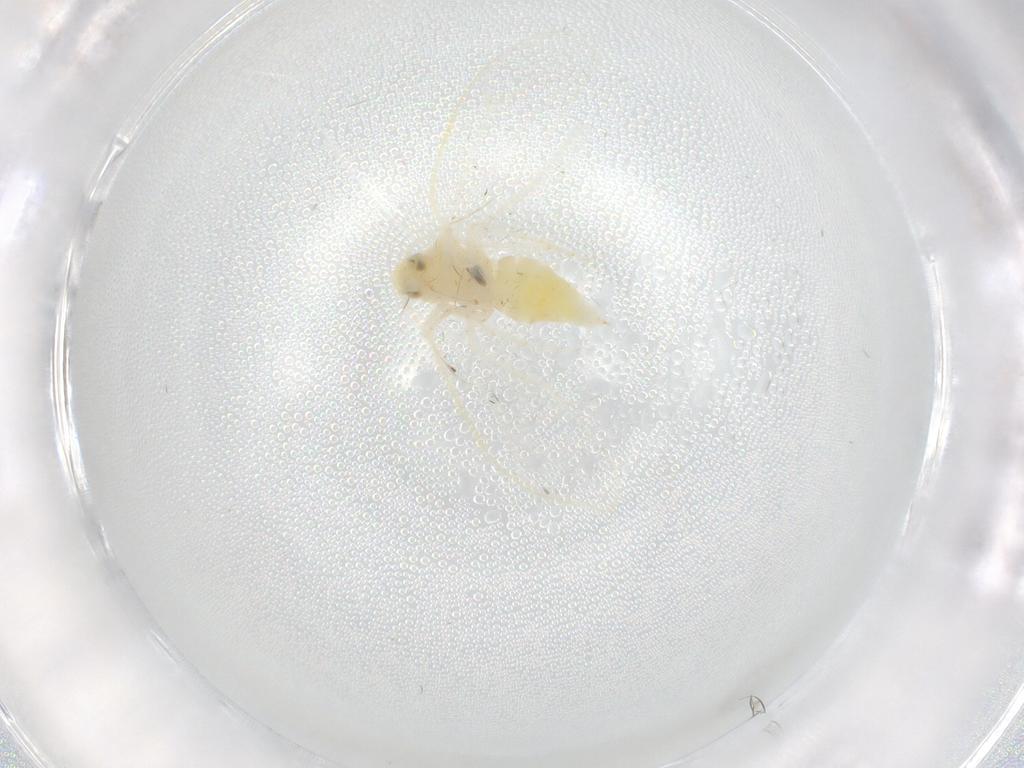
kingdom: Animalia
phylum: Arthropoda
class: Insecta
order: Hemiptera
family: Aleyrodidae
